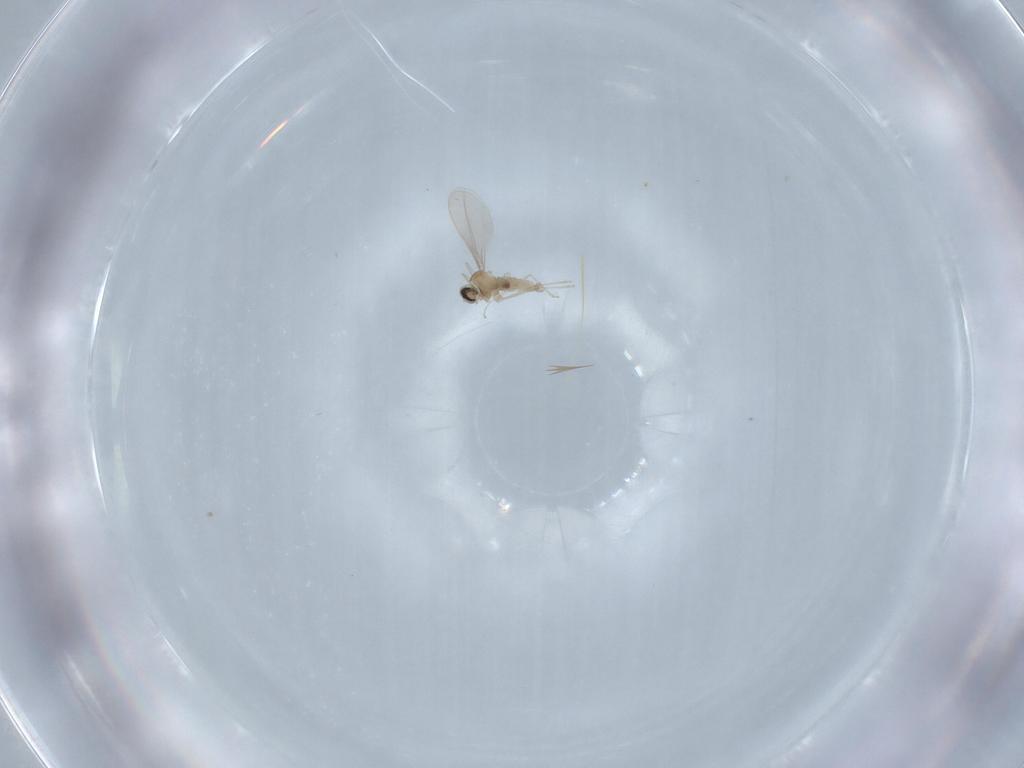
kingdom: Animalia
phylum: Arthropoda
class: Insecta
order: Diptera
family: Cecidomyiidae
